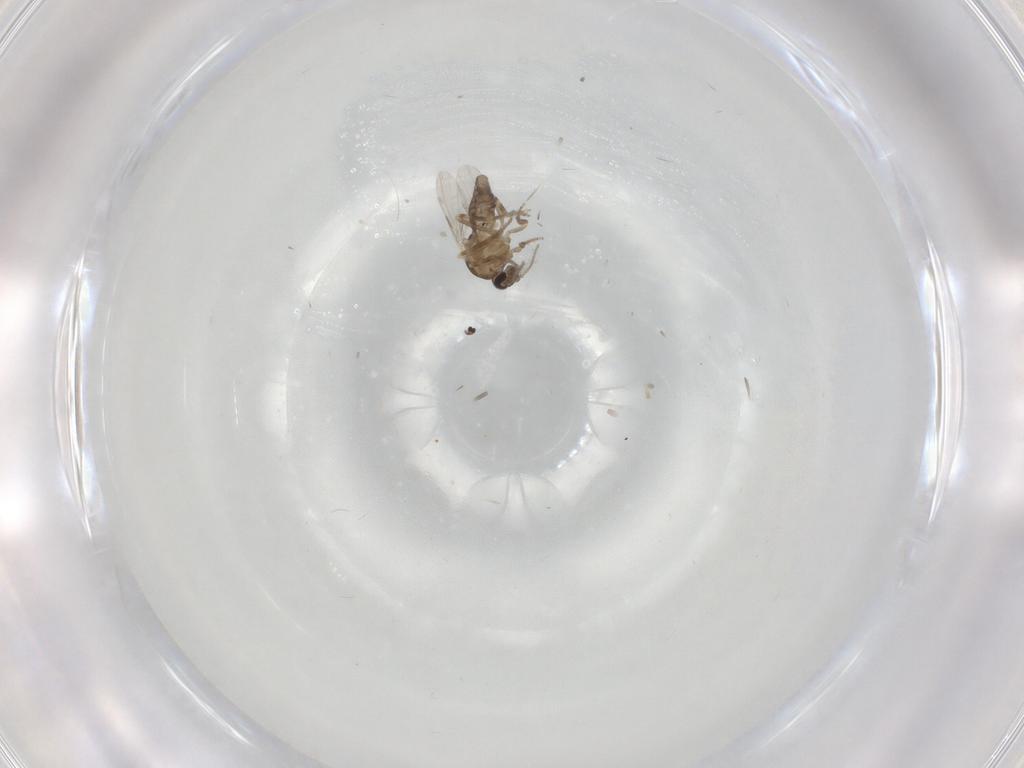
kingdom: Animalia
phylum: Arthropoda
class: Insecta
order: Diptera
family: Ceratopogonidae
